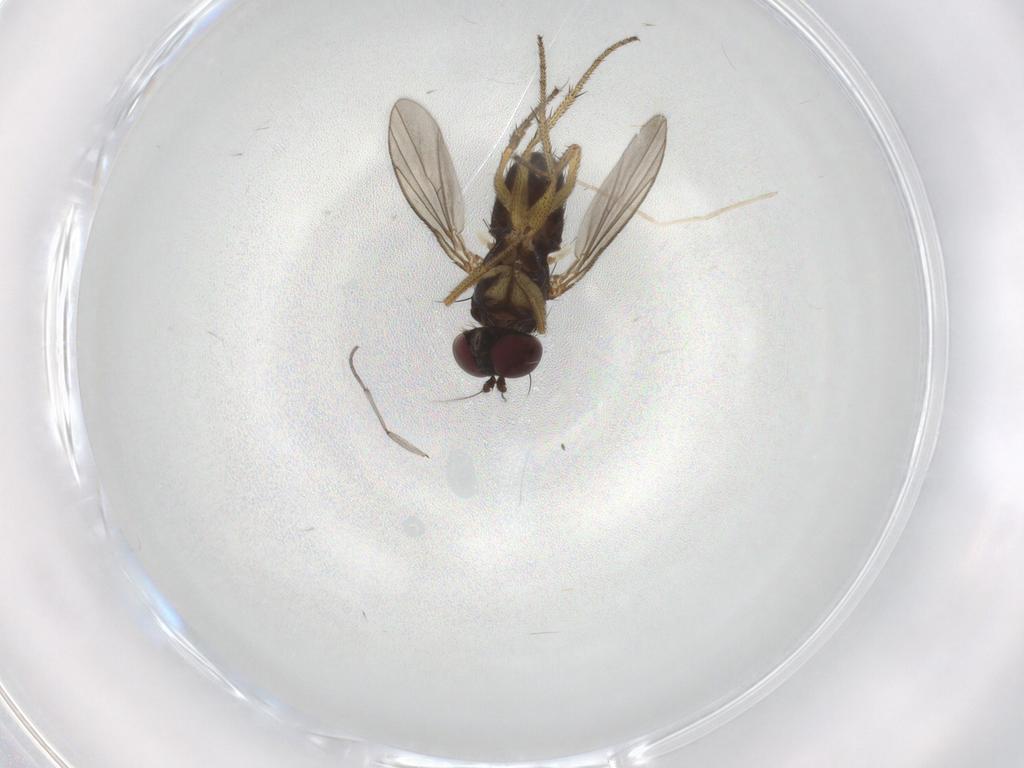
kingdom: Animalia
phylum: Arthropoda
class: Insecta
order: Diptera
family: Sciaridae
